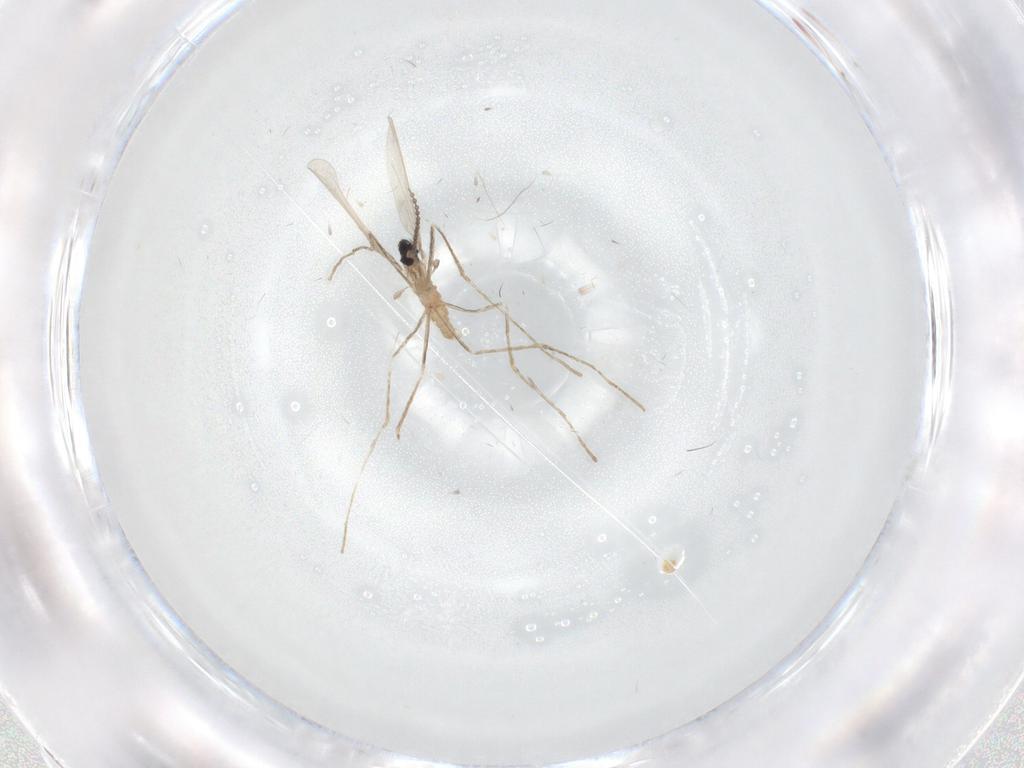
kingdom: Animalia
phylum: Arthropoda
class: Insecta
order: Diptera
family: Cecidomyiidae
